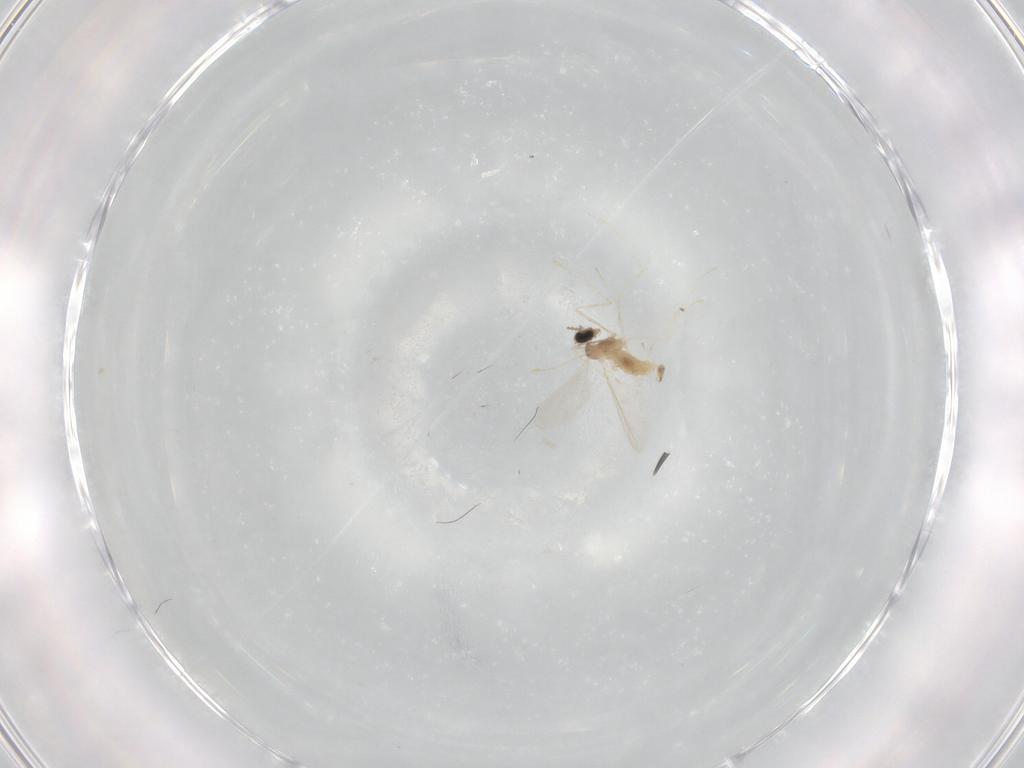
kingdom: Animalia
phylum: Arthropoda
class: Insecta
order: Diptera
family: Cecidomyiidae
